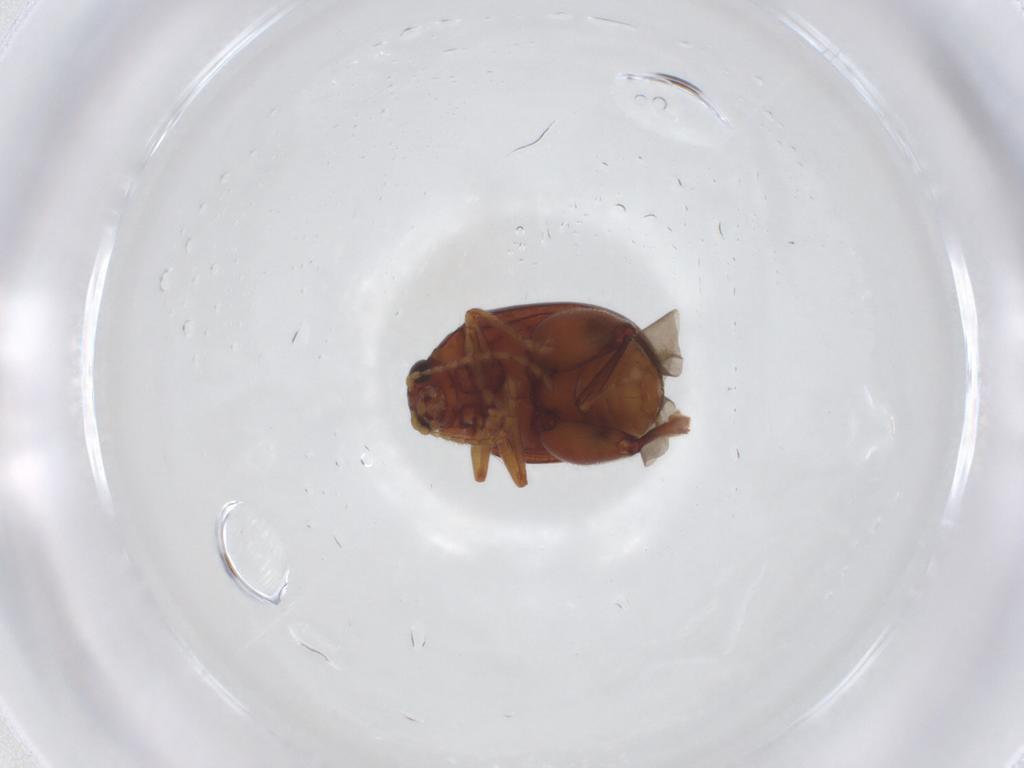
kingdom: Animalia
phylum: Arthropoda
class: Insecta
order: Coleoptera
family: Chrysomelidae
